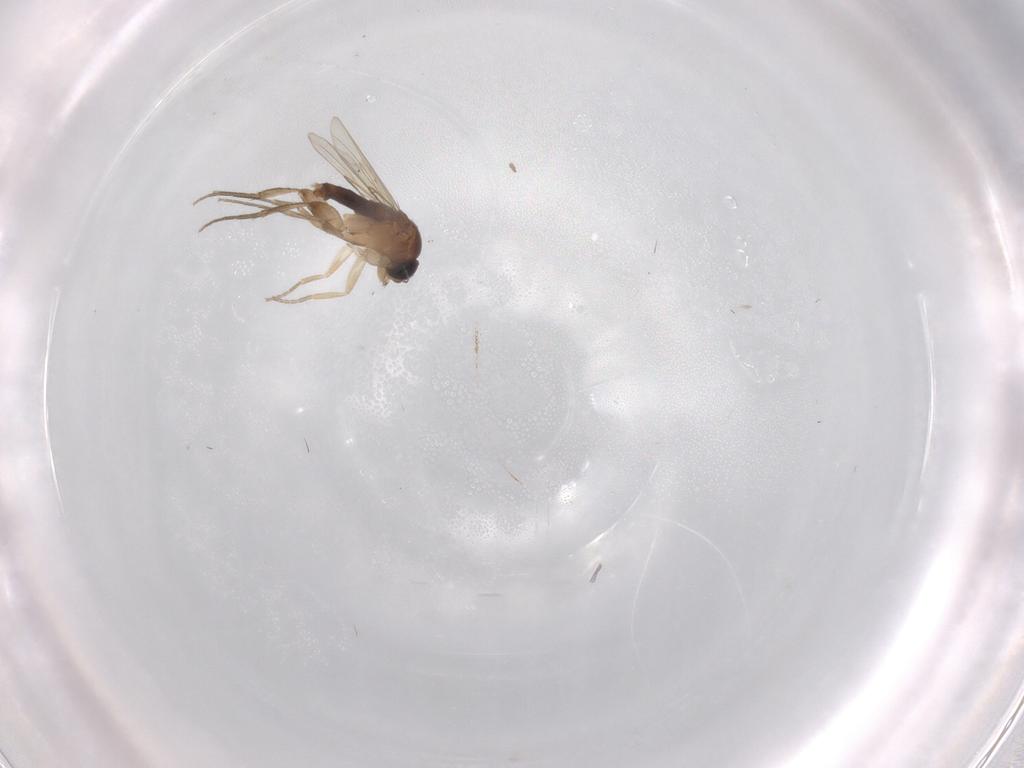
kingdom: Animalia
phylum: Arthropoda
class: Insecta
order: Diptera
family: Phoridae
